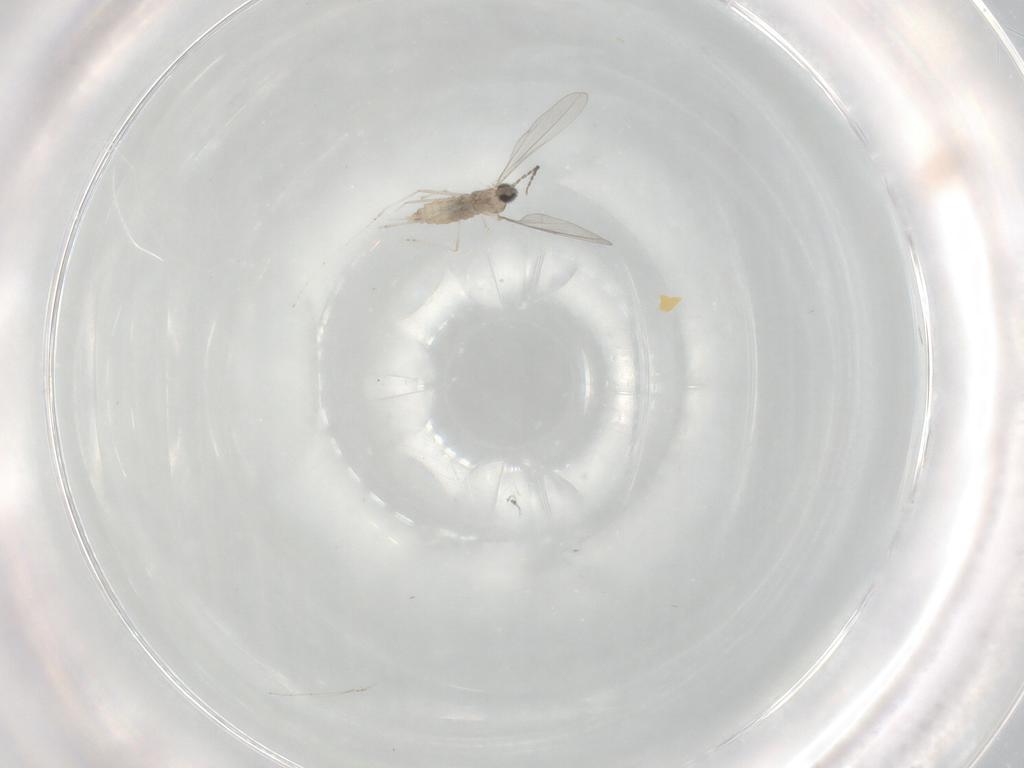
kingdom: Animalia
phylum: Arthropoda
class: Insecta
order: Diptera
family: Cecidomyiidae
